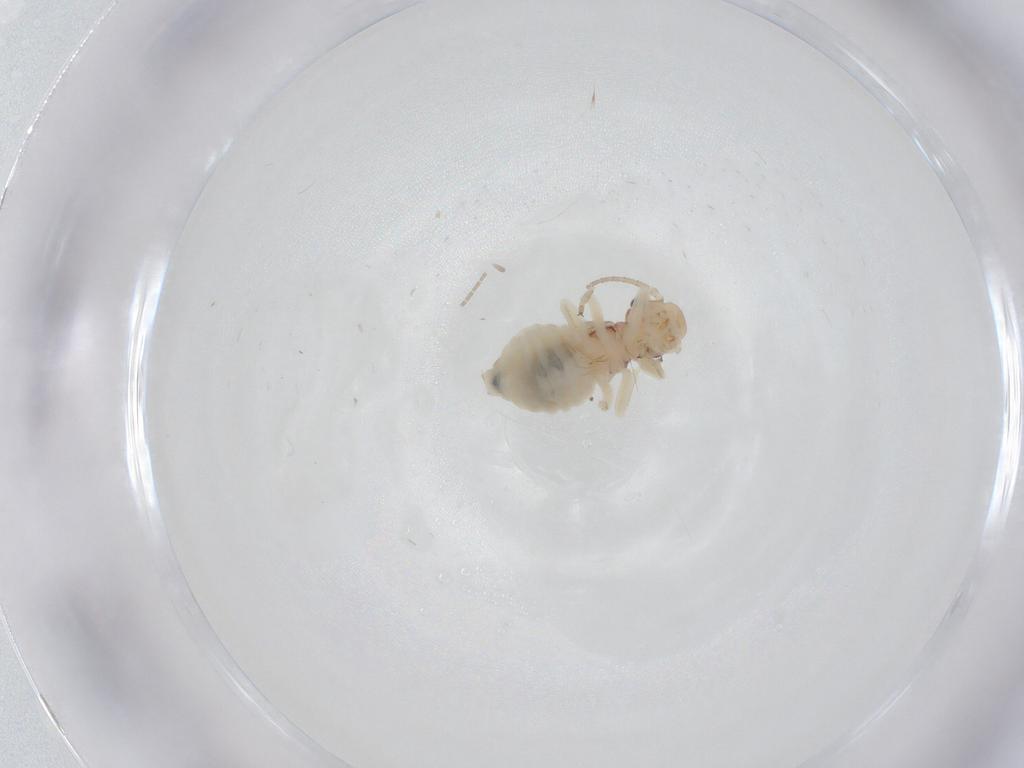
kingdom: Animalia
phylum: Arthropoda
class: Insecta
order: Psocodea
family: Amphipsocidae
